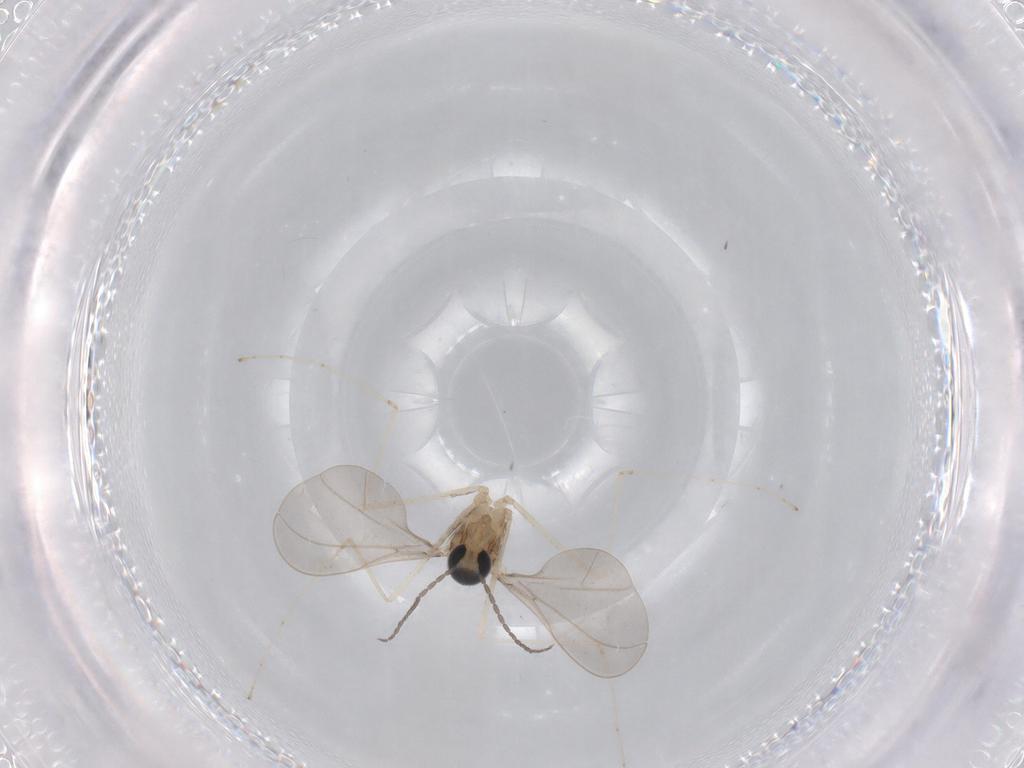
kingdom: Animalia
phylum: Arthropoda
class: Insecta
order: Diptera
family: Cecidomyiidae
